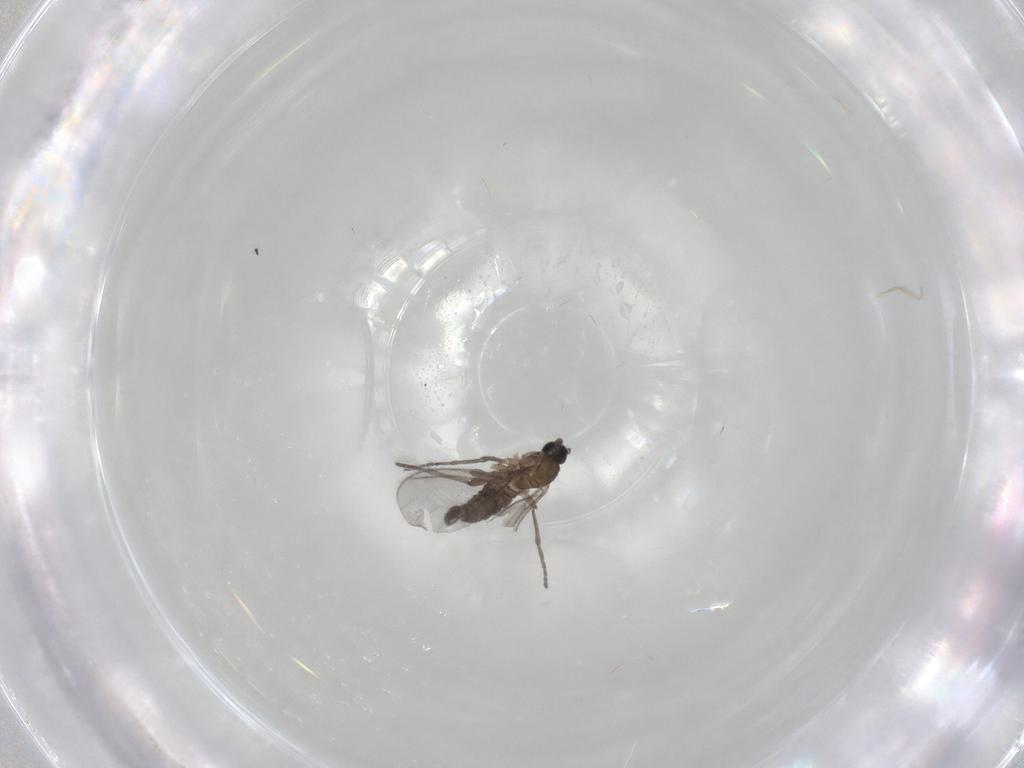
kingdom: Animalia
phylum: Arthropoda
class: Insecta
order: Diptera
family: Sciaridae
